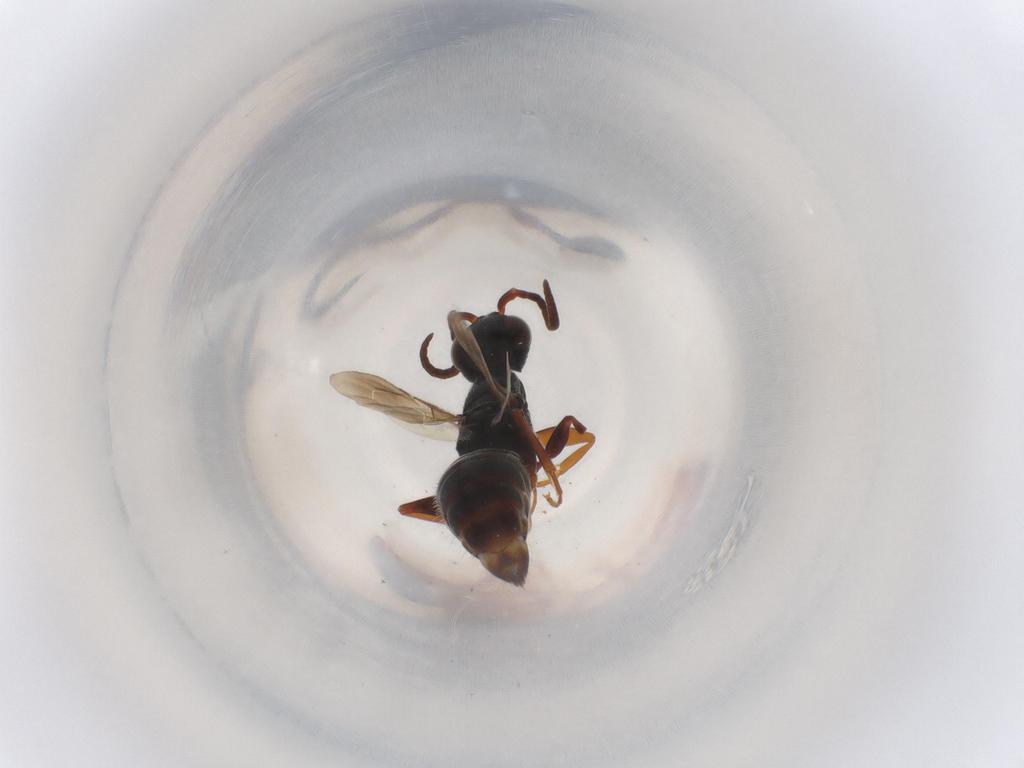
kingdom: Animalia
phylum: Arthropoda
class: Insecta
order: Hymenoptera
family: Bethylidae
